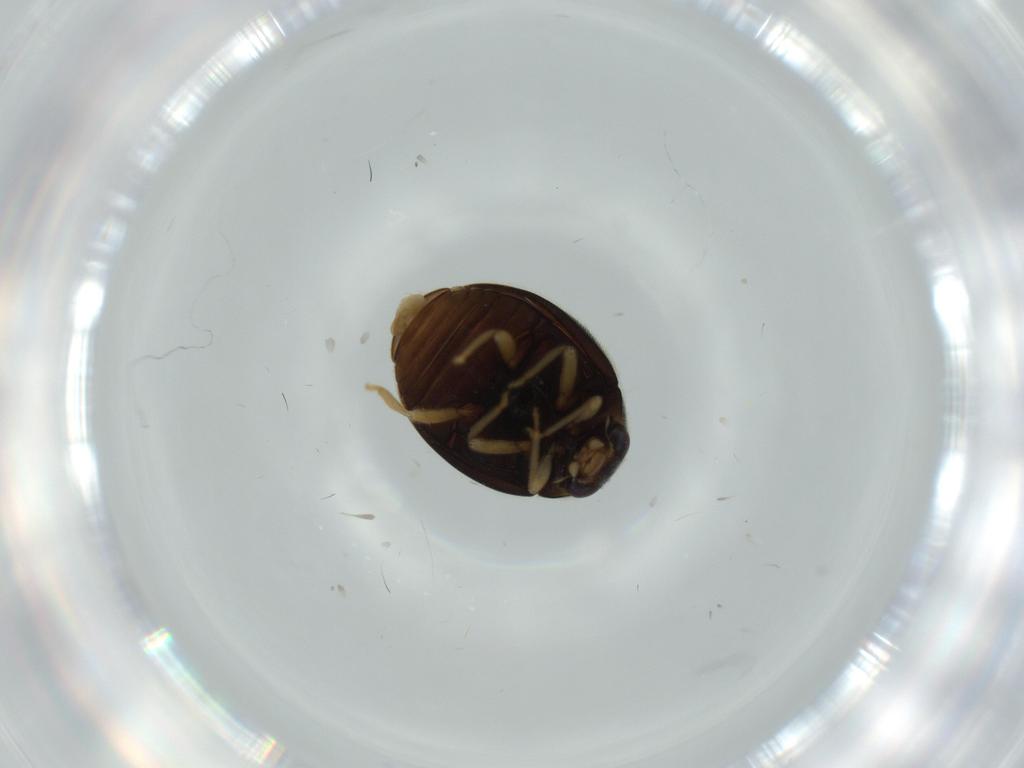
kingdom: Animalia
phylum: Arthropoda
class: Insecta
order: Coleoptera
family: Coccinellidae
